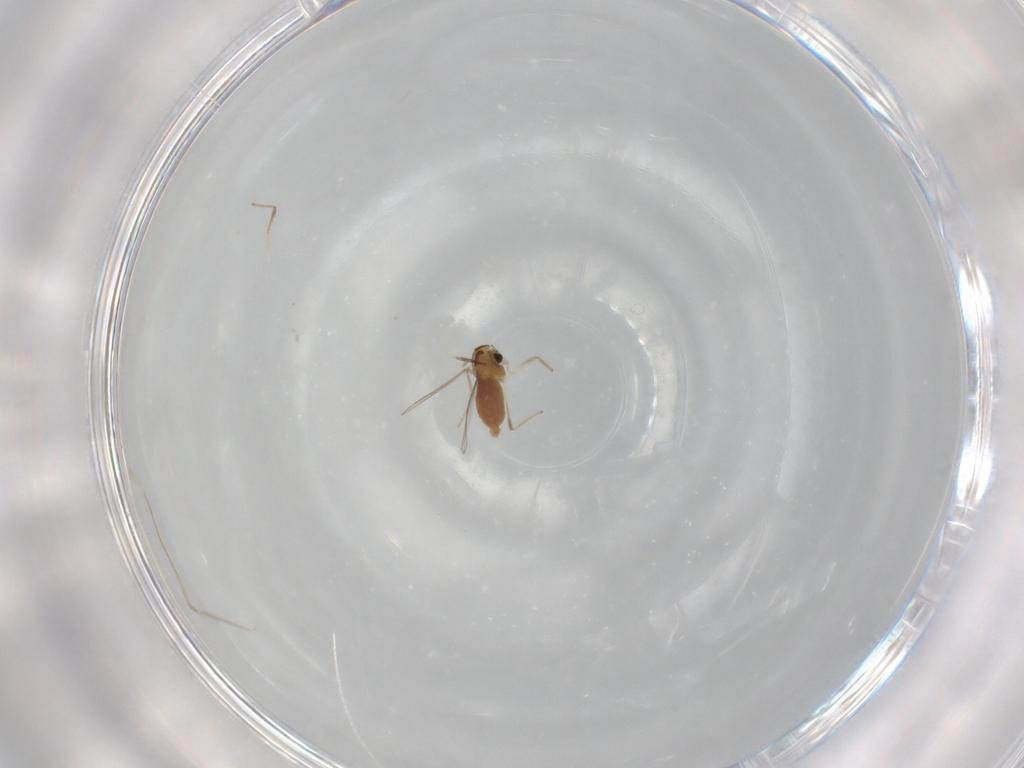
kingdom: Animalia
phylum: Arthropoda
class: Insecta
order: Diptera
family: Chironomidae
